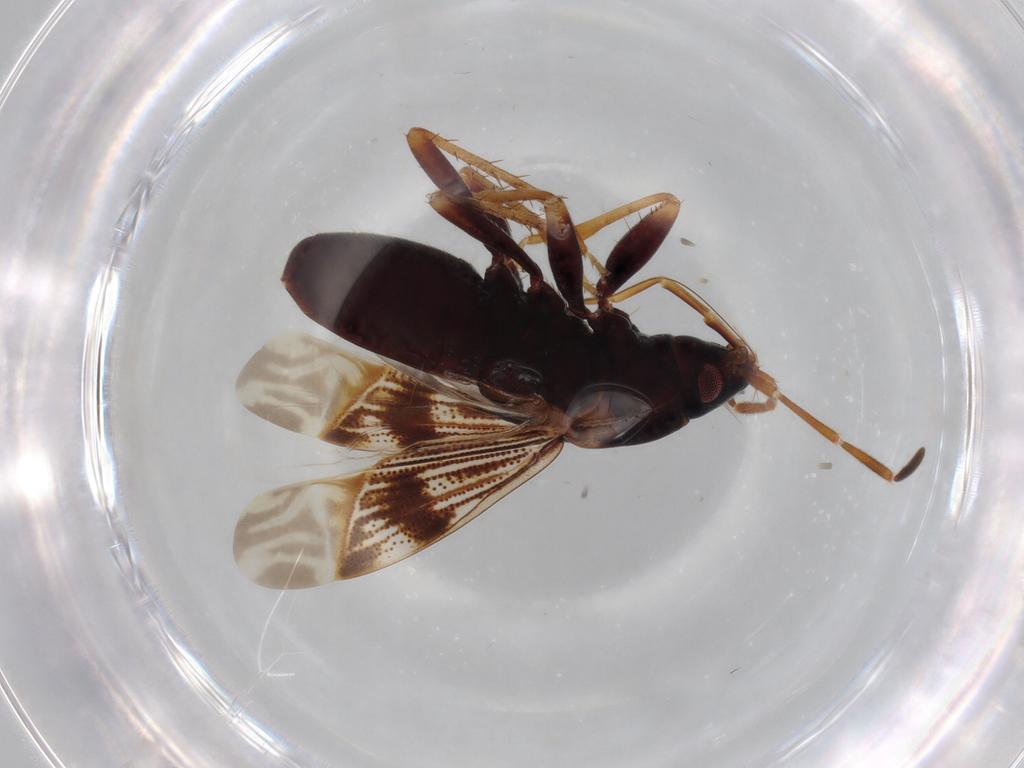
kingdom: Animalia
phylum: Arthropoda
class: Insecta
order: Hemiptera
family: Rhyparochromidae
